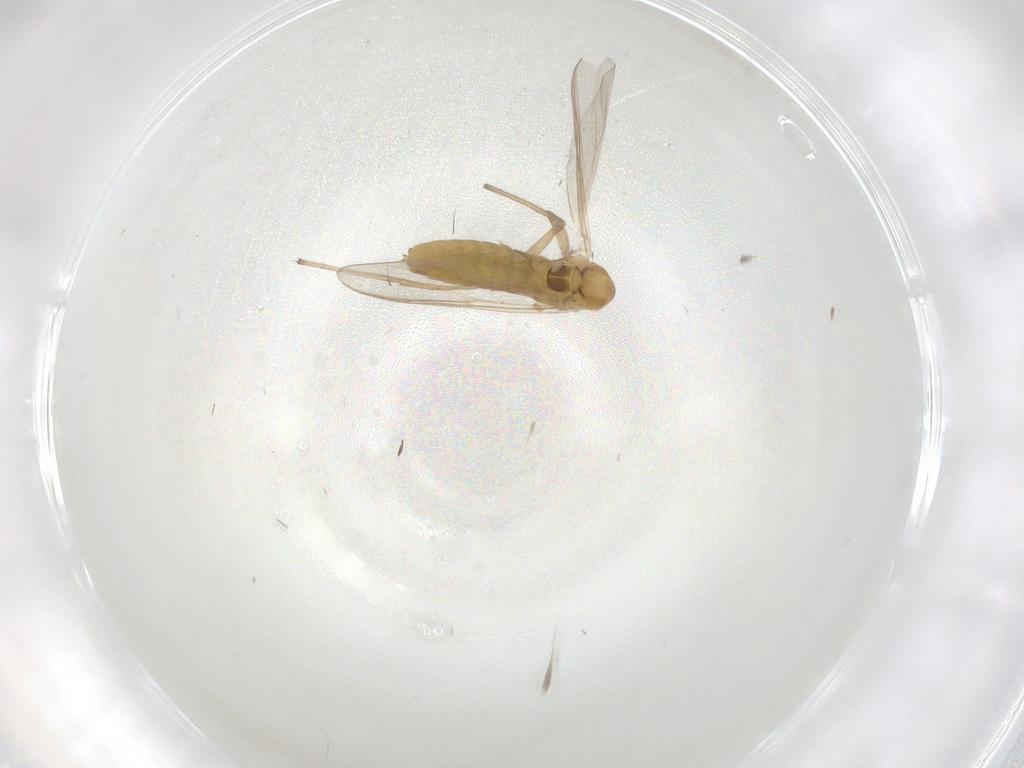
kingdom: Animalia
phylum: Arthropoda
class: Insecta
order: Diptera
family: Chironomidae
